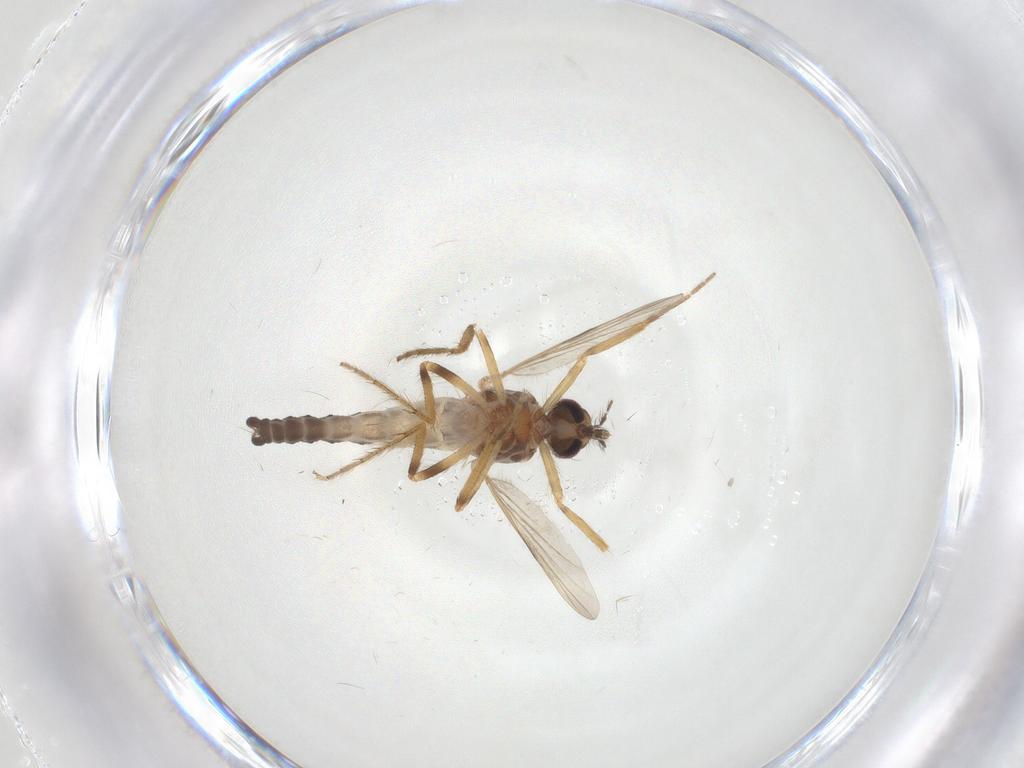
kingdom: Animalia
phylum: Arthropoda
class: Insecta
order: Diptera
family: Ceratopogonidae
